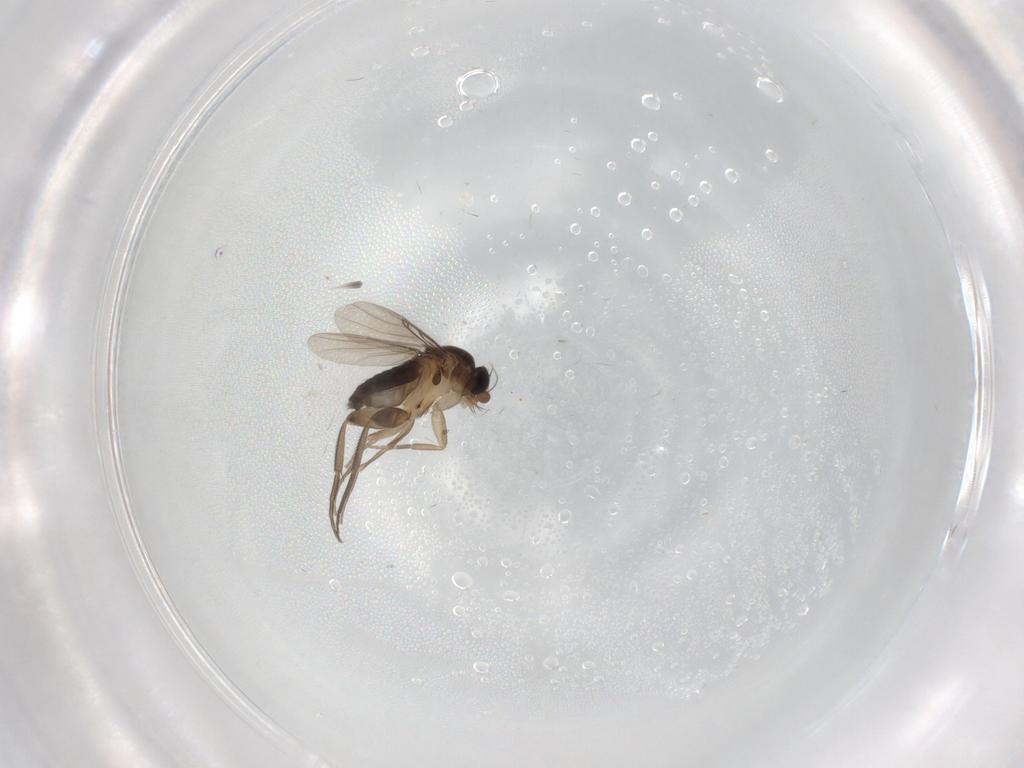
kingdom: Animalia
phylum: Arthropoda
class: Insecta
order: Diptera
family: Phoridae
